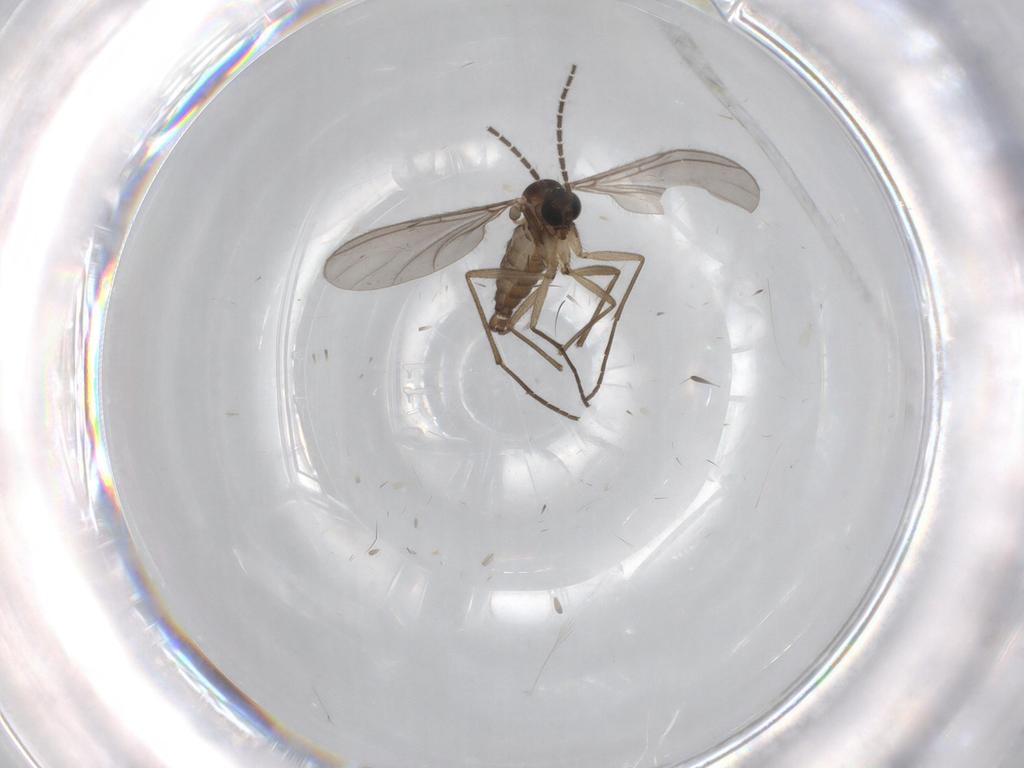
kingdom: Animalia
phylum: Arthropoda
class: Insecta
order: Diptera
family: Sciaridae
